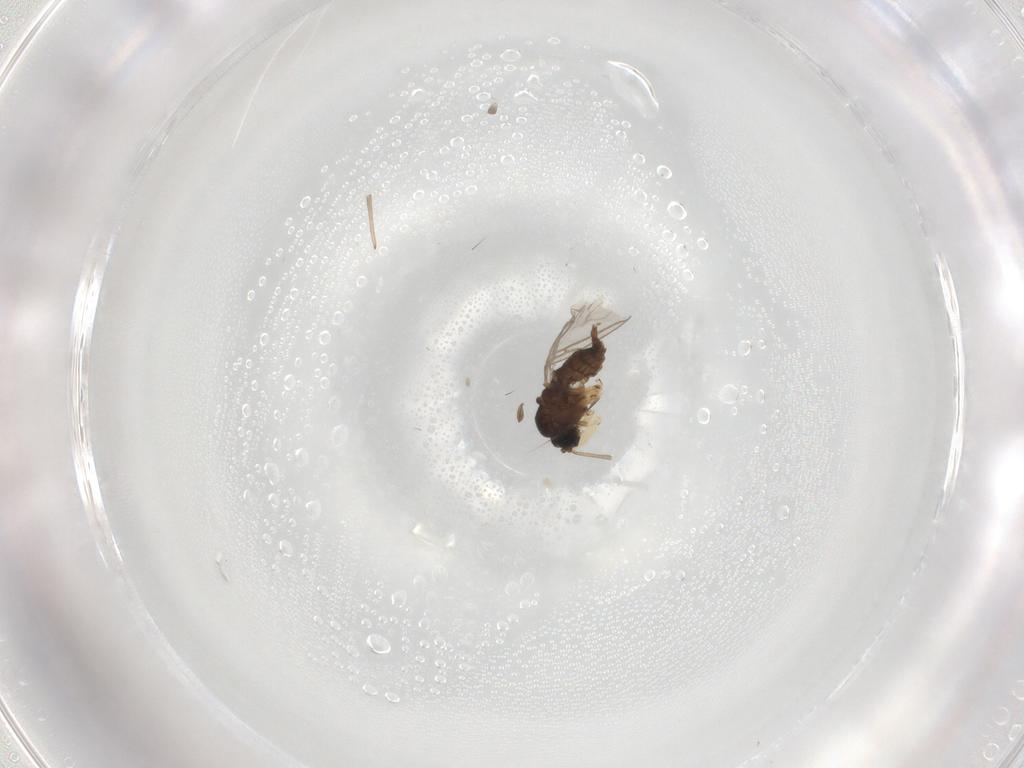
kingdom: Animalia
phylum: Arthropoda
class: Insecta
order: Diptera
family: Sciaridae
